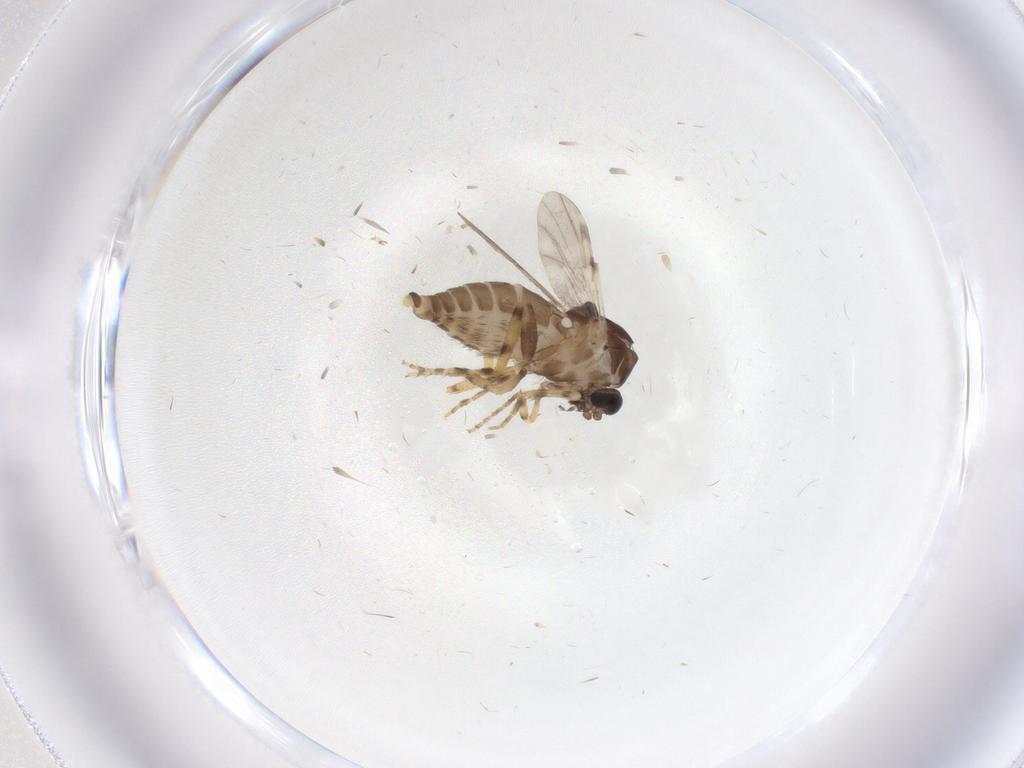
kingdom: Animalia
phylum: Arthropoda
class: Insecta
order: Diptera
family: Ceratopogonidae
